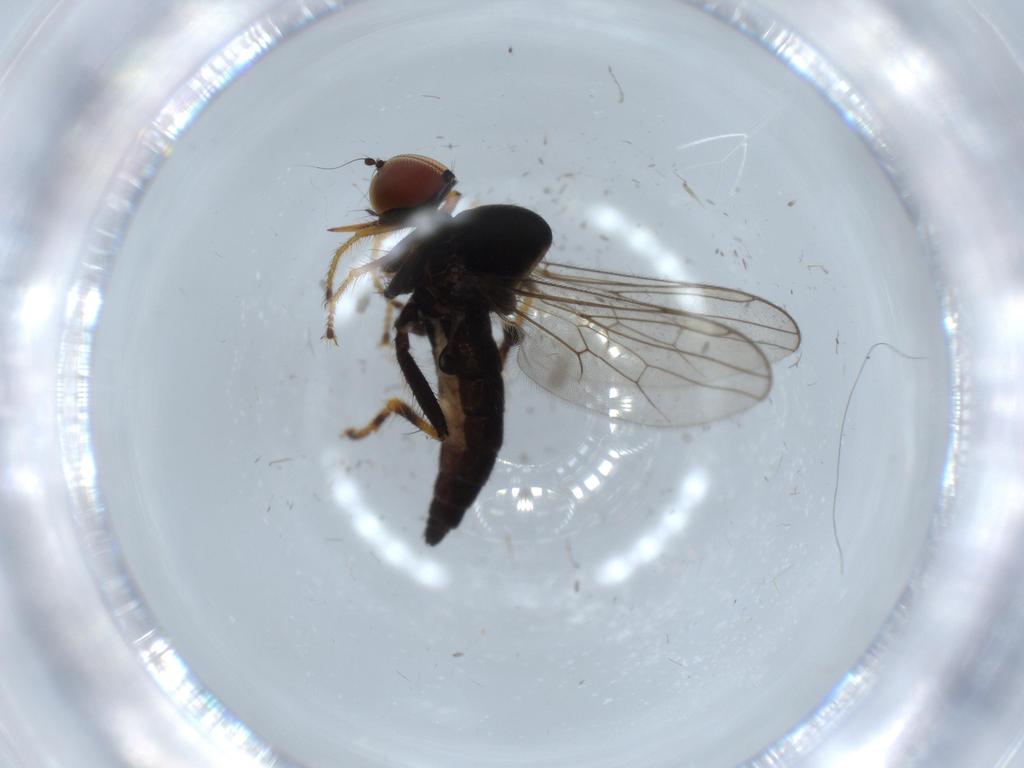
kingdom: Animalia
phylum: Arthropoda
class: Insecta
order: Diptera
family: Hybotidae
